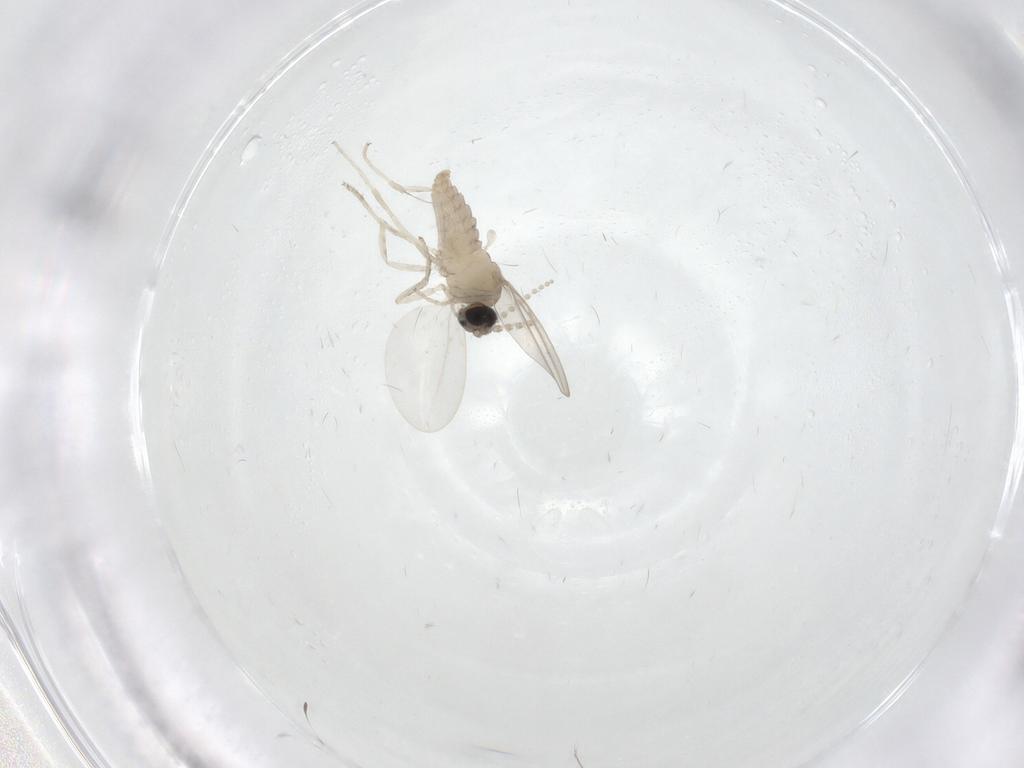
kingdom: Animalia
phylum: Arthropoda
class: Insecta
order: Diptera
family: Cecidomyiidae
